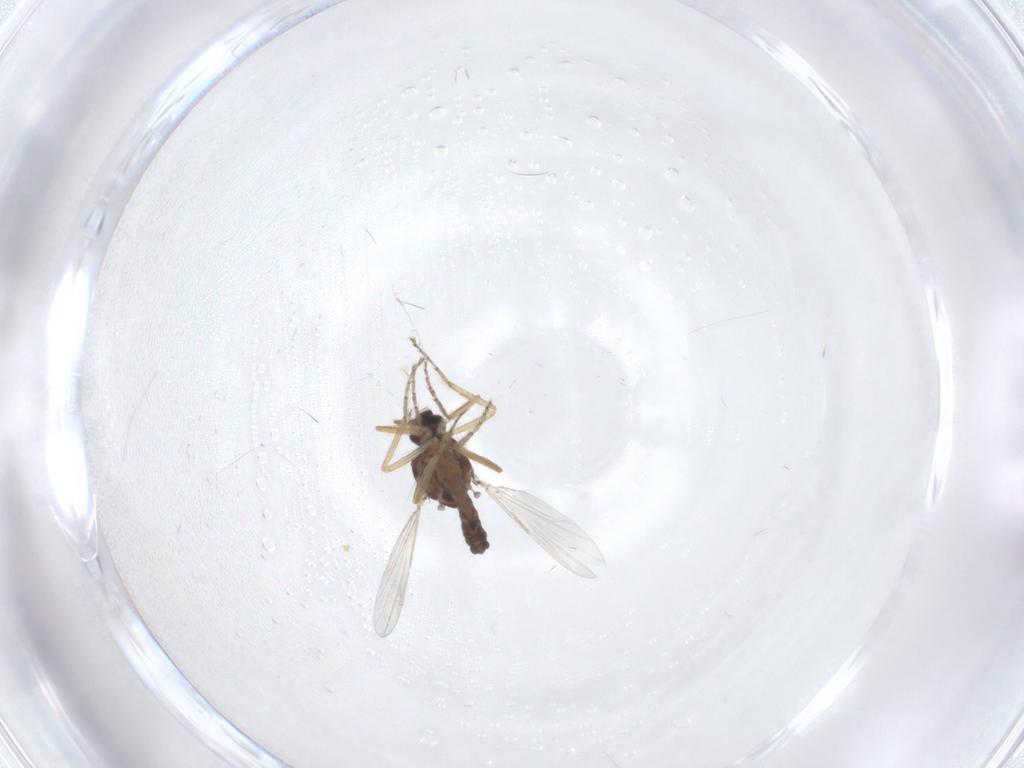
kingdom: Animalia
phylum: Arthropoda
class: Insecta
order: Diptera
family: Ceratopogonidae
